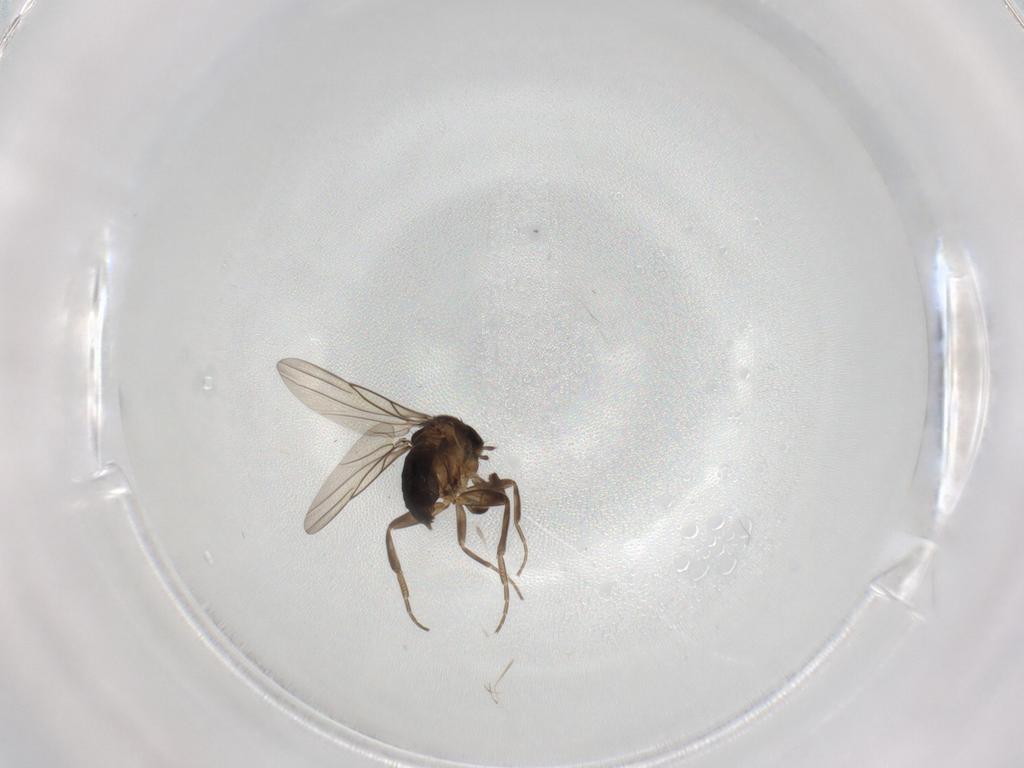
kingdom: Animalia
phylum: Arthropoda
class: Insecta
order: Diptera
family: Phoridae
